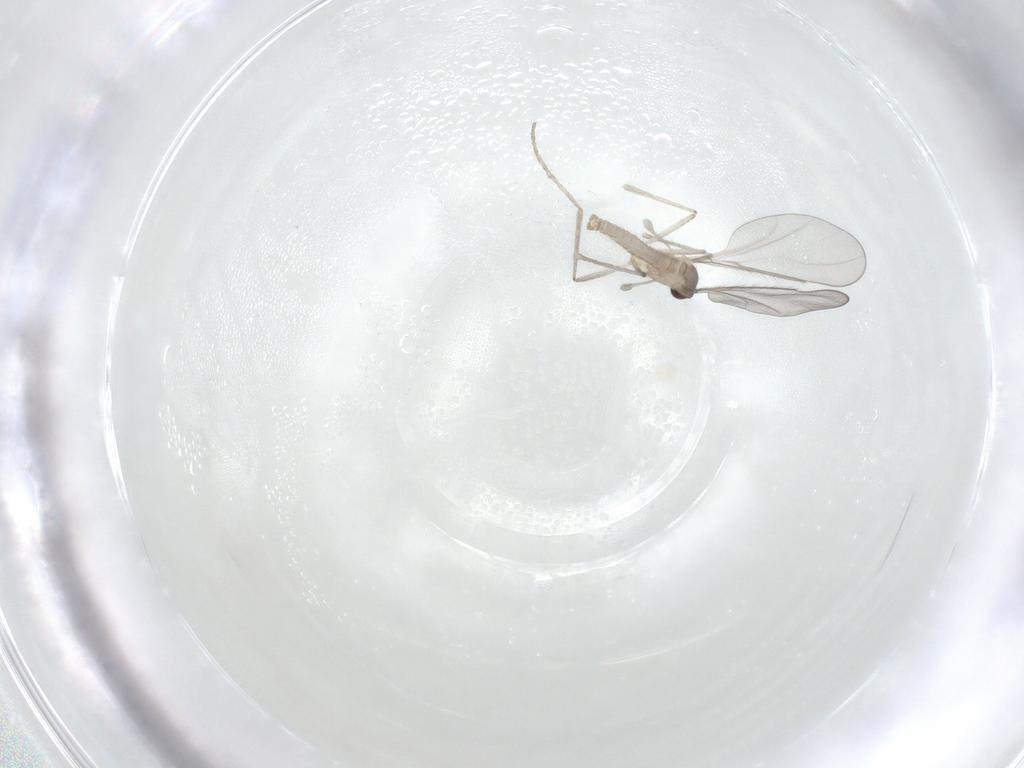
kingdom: Animalia
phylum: Arthropoda
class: Insecta
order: Diptera
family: Cecidomyiidae
